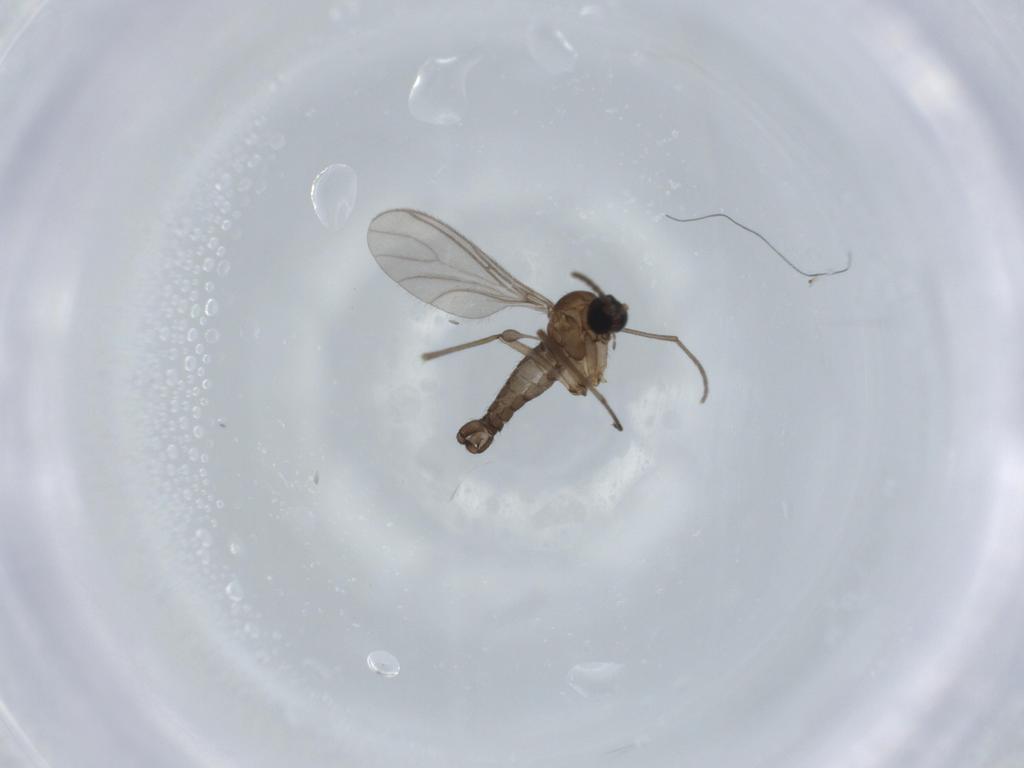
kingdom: Animalia
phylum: Arthropoda
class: Insecta
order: Diptera
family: Sciaridae
